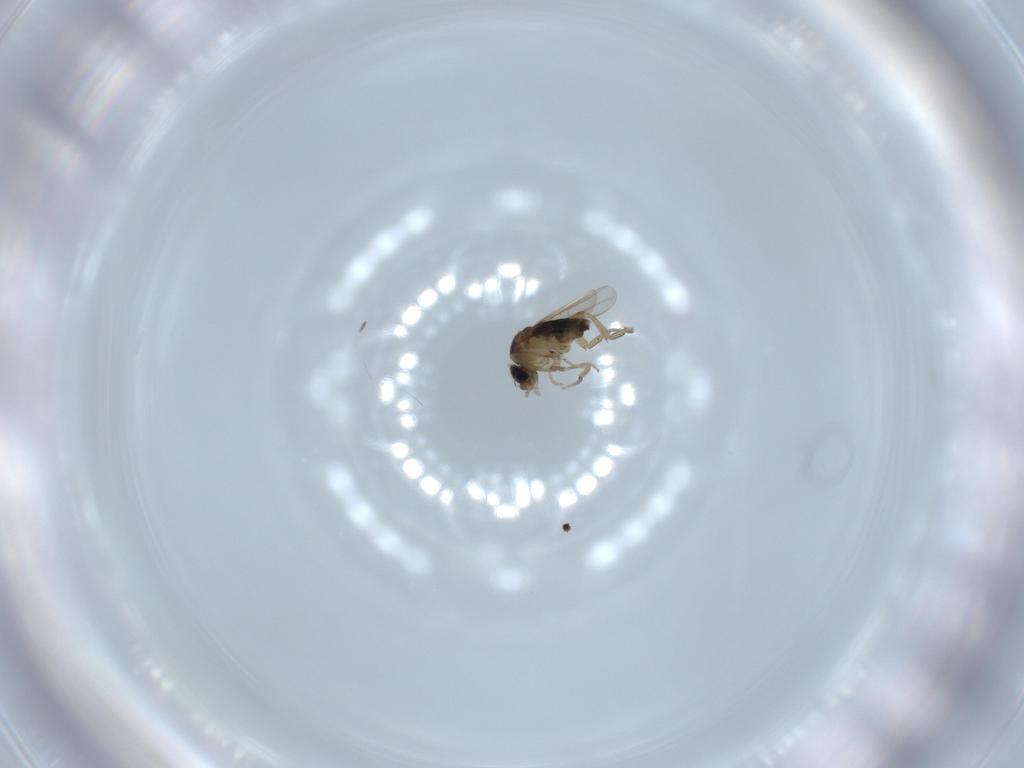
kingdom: Animalia
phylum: Arthropoda
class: Insecta
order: Diptera
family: Phoridae
